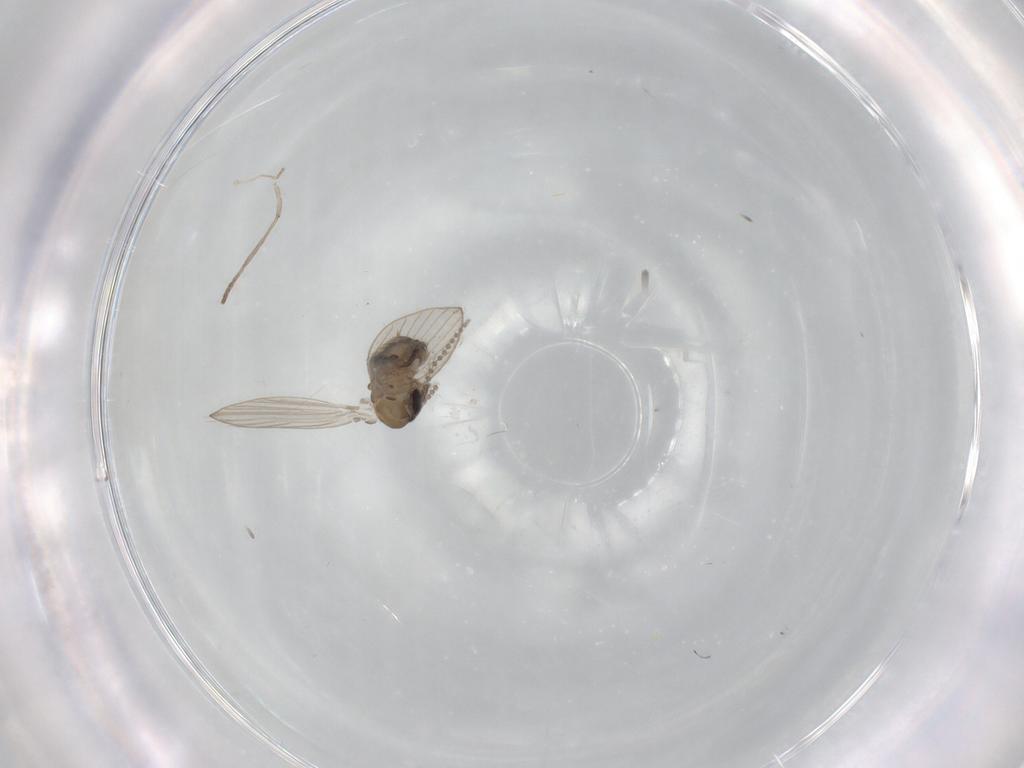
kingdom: Animalia
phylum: Arthropoda
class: Insecta
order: Diptera
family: Psychodidae
